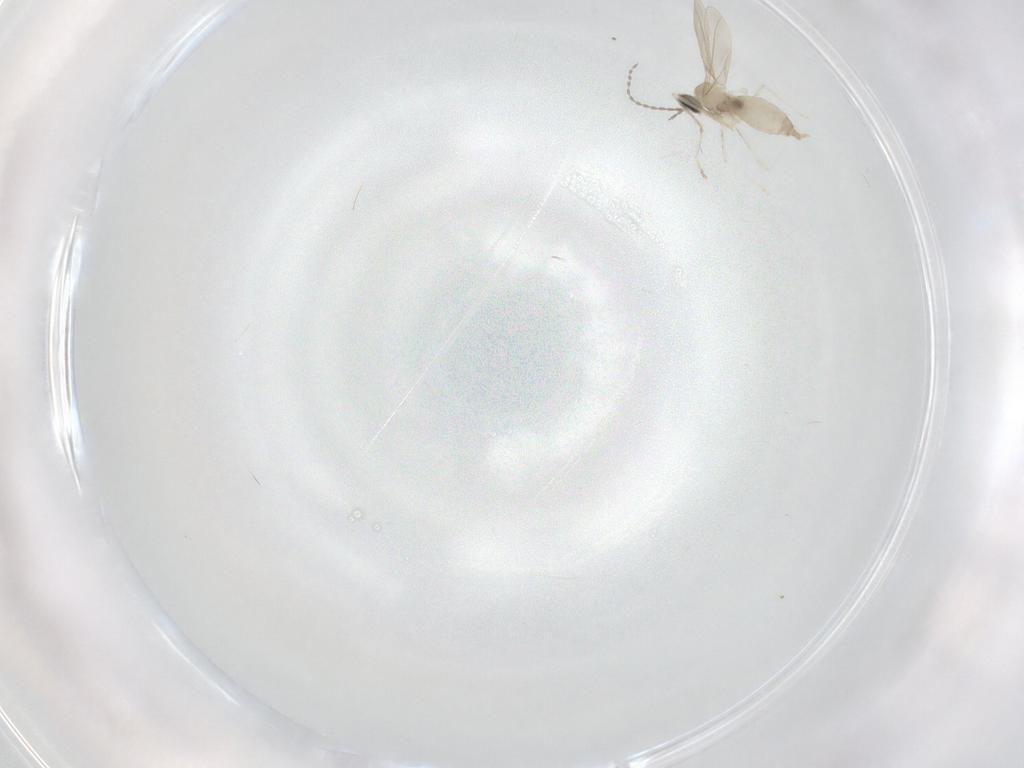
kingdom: Animalia
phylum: Arthropoda
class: Insecta
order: Diptera
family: Cecidomyiidae
